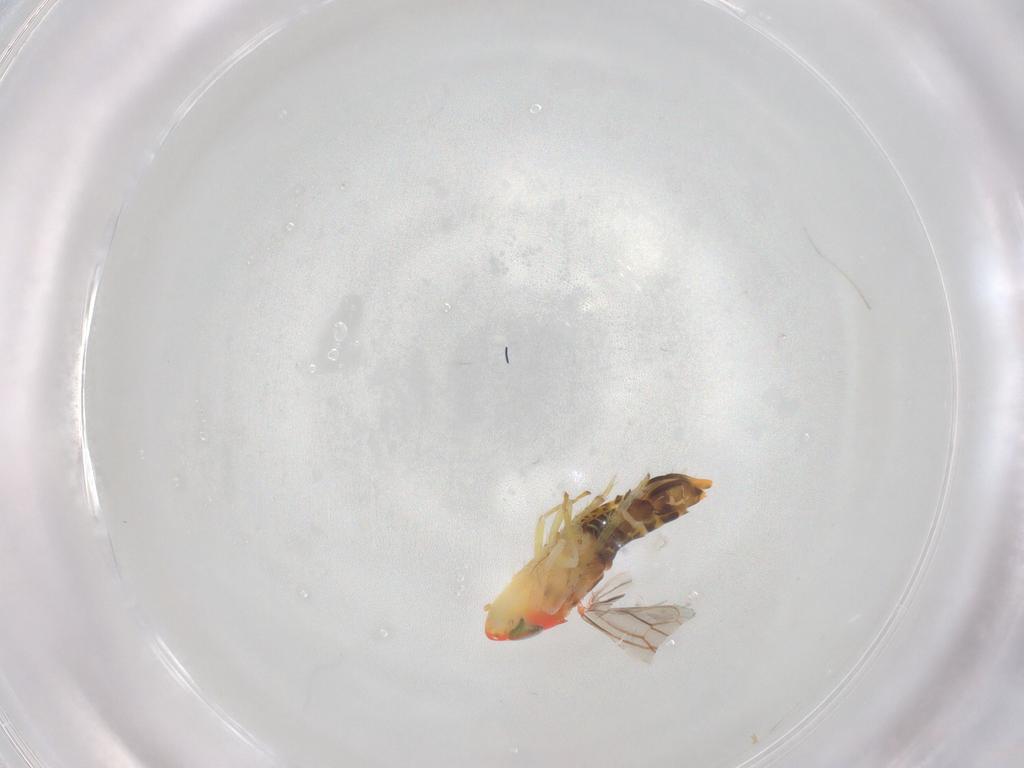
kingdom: Animalia
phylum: Arthropoda
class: Insecta
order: Hemiptera
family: Cicadellidae
